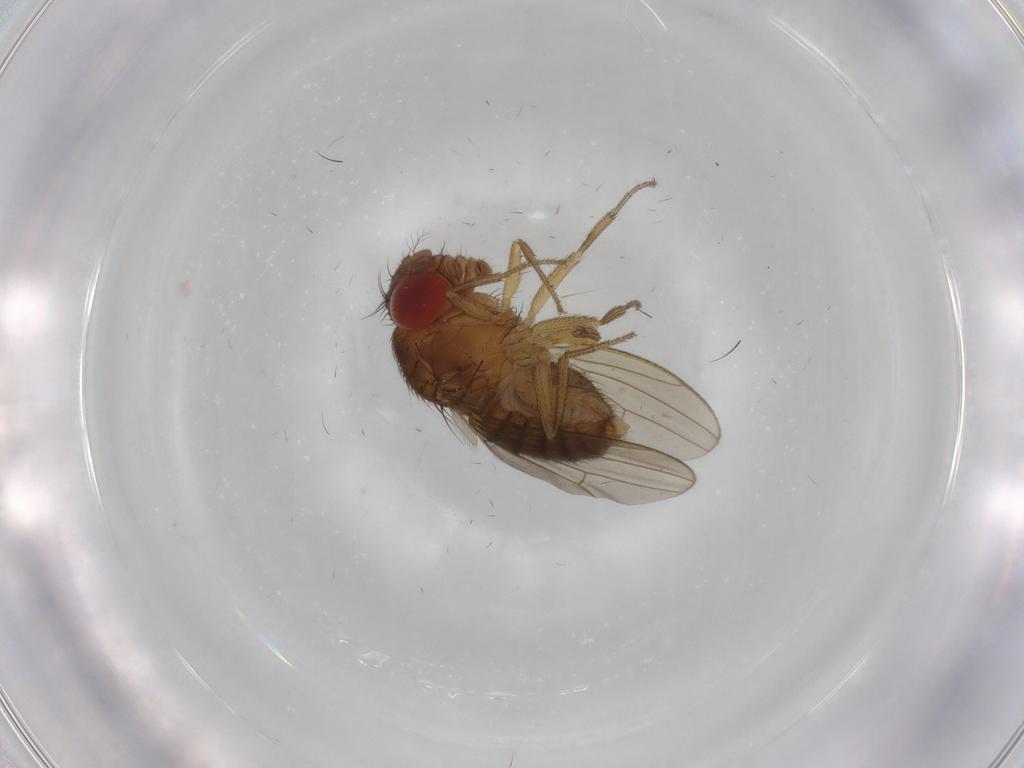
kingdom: Animalia
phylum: Arthropoda
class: Insecta
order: Diptera
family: Drosophilidae
